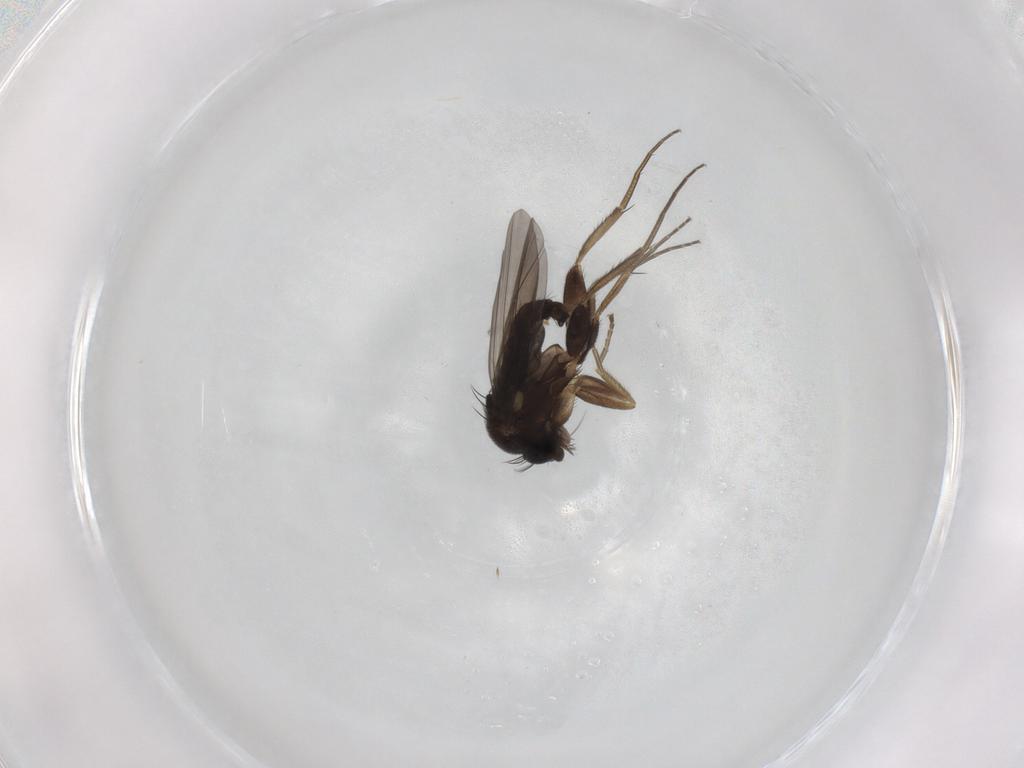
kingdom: Animalia
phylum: Arthropoda
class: Insecta
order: Diptera
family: Phoridae
